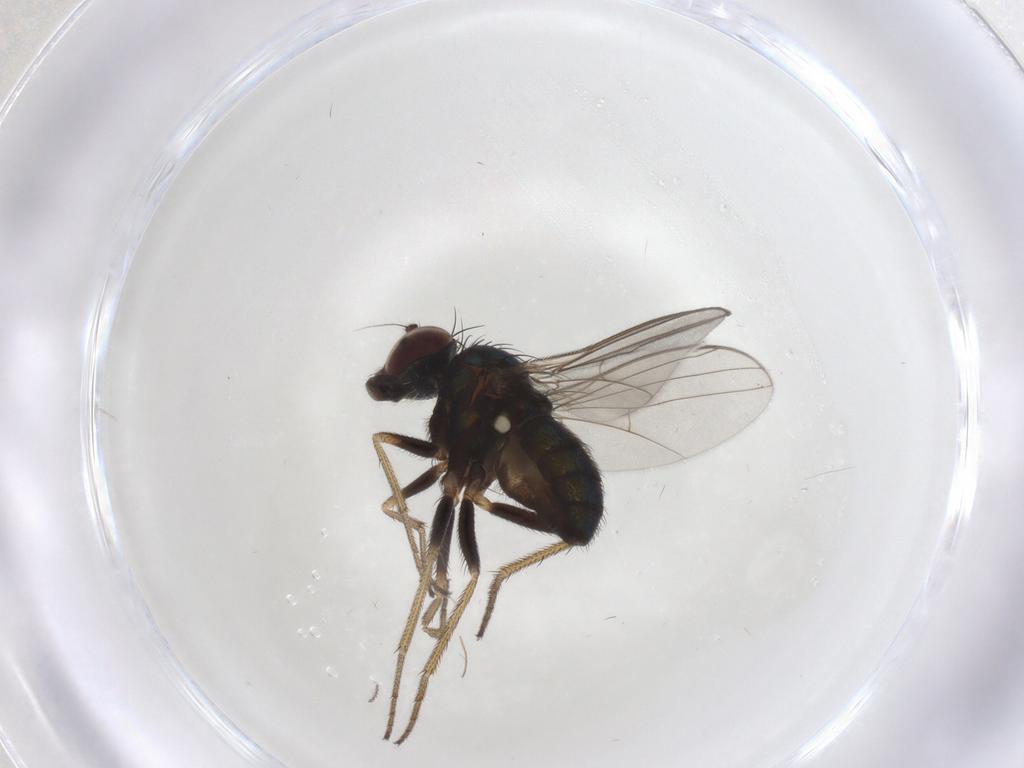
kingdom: Animalia
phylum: Arthropoda
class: Insecta
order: Diptera
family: Dolichopodidae
